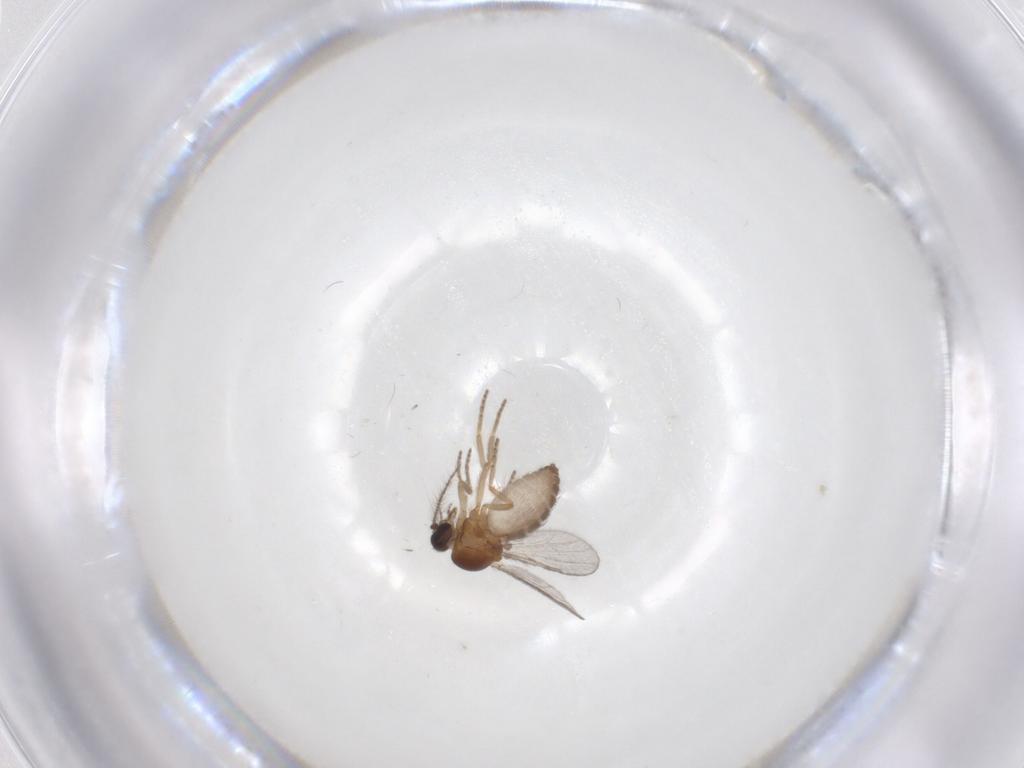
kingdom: Animalia
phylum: Arthropoda
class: Insecta
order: Diptera
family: Ceratopogonidae
